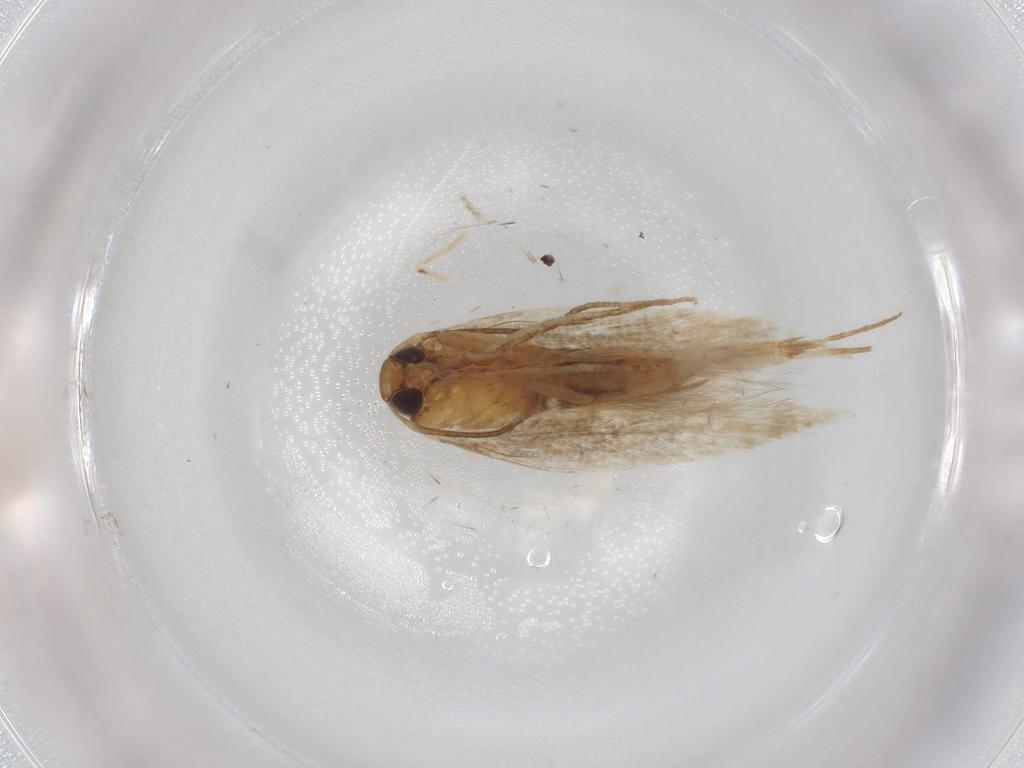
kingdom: Animalia
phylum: Arthropoda
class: Insecta
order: Lepidoptera
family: Cosmopterigidae
